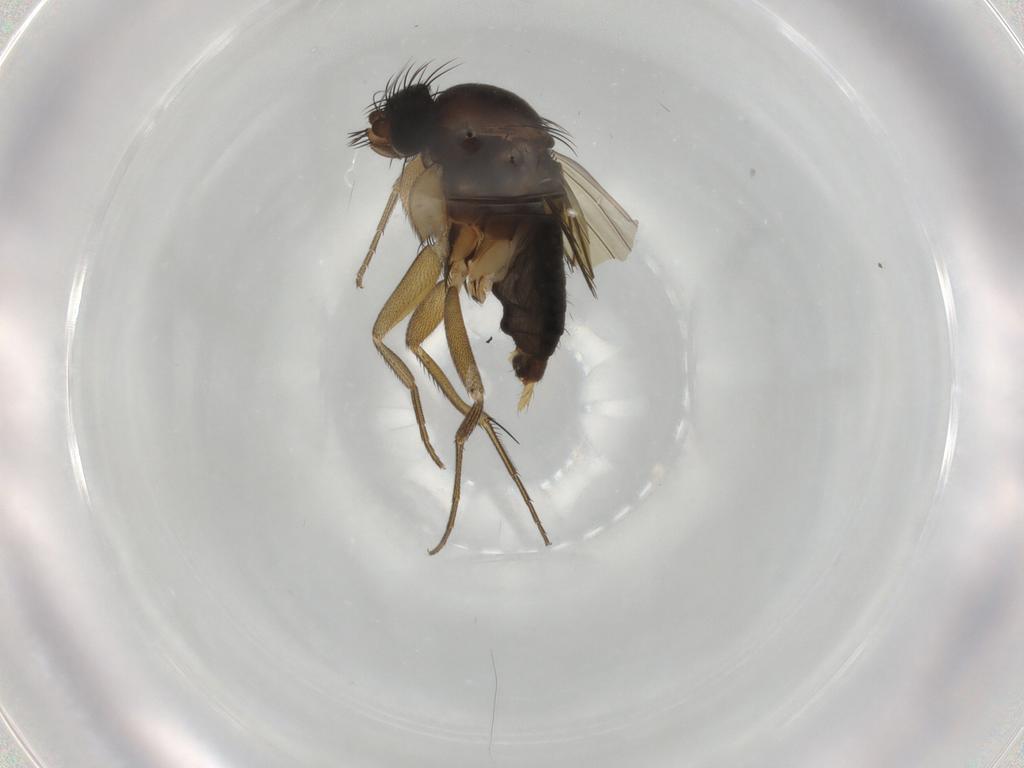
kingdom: Animalia
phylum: Arthropoda
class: Insecta
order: Diptera
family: Phoridae
